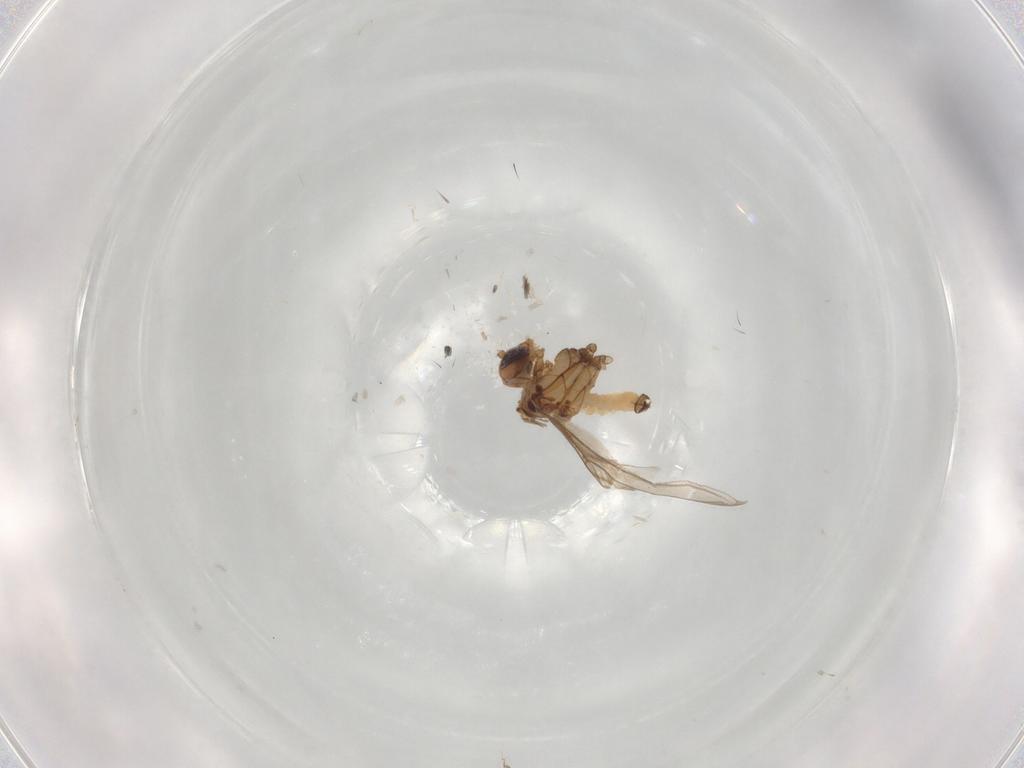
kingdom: Animalia
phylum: Arthropoda
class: Insecta
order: Neuroptera
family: Coniopterygidae
